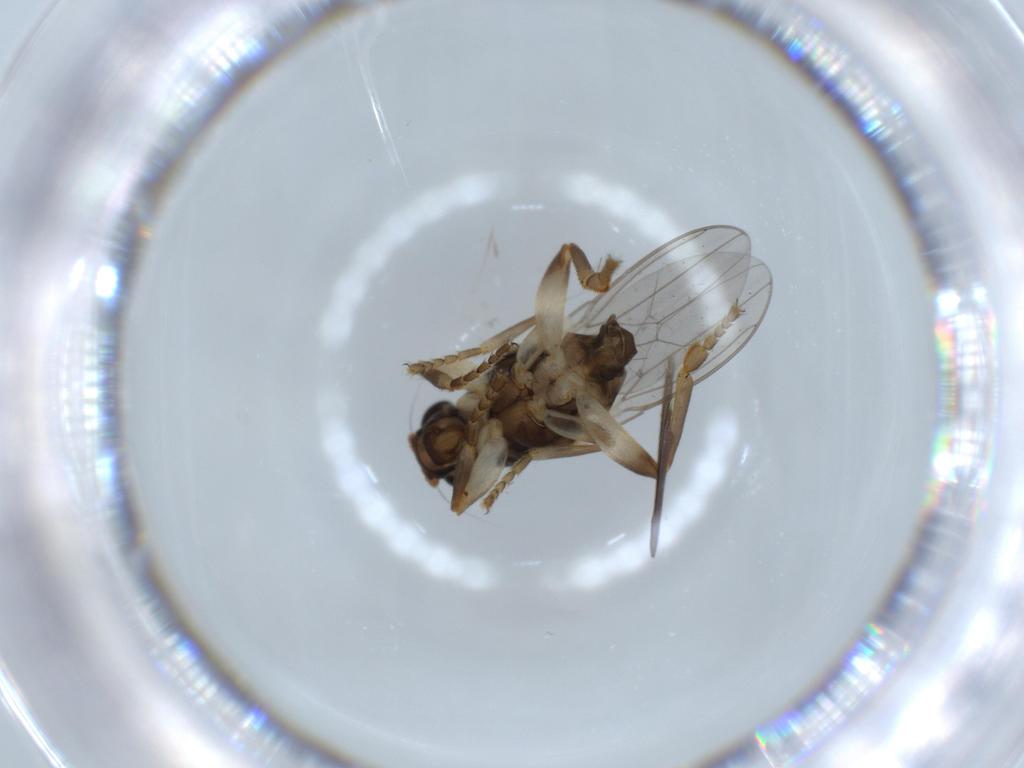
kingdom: Animalia
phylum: Arthropoda
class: Insecta
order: Diptera
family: Sphaeroceridae
